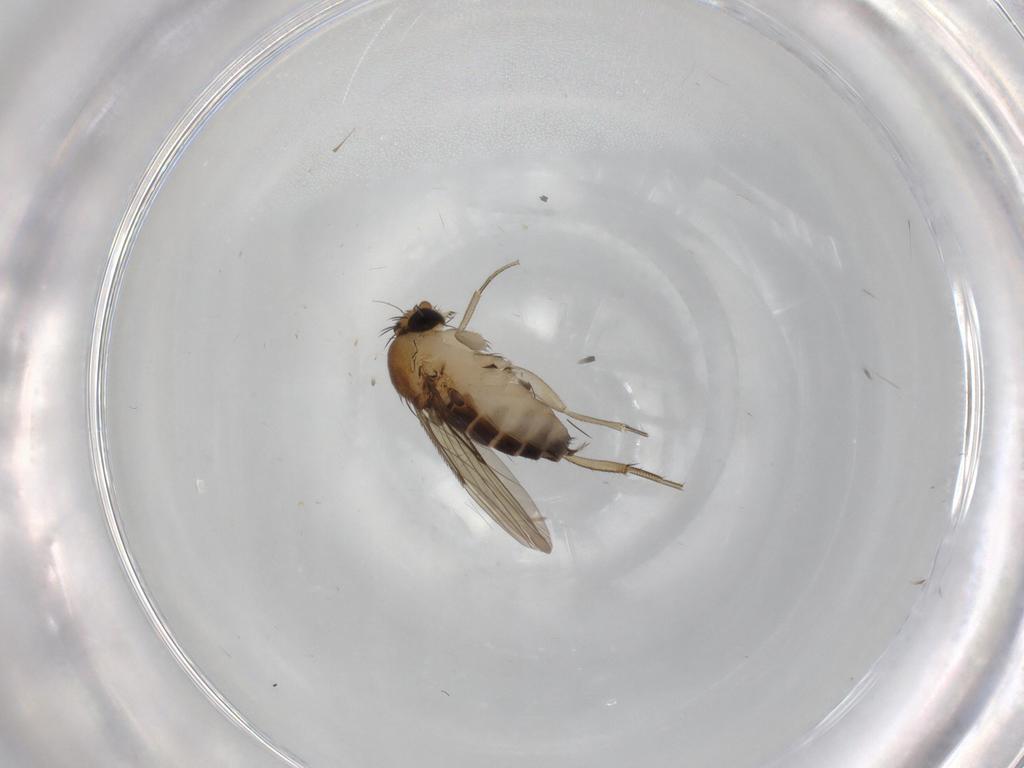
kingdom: Animalia
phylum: Arthropoda
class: Insecta
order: Diptera
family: Phoridae
